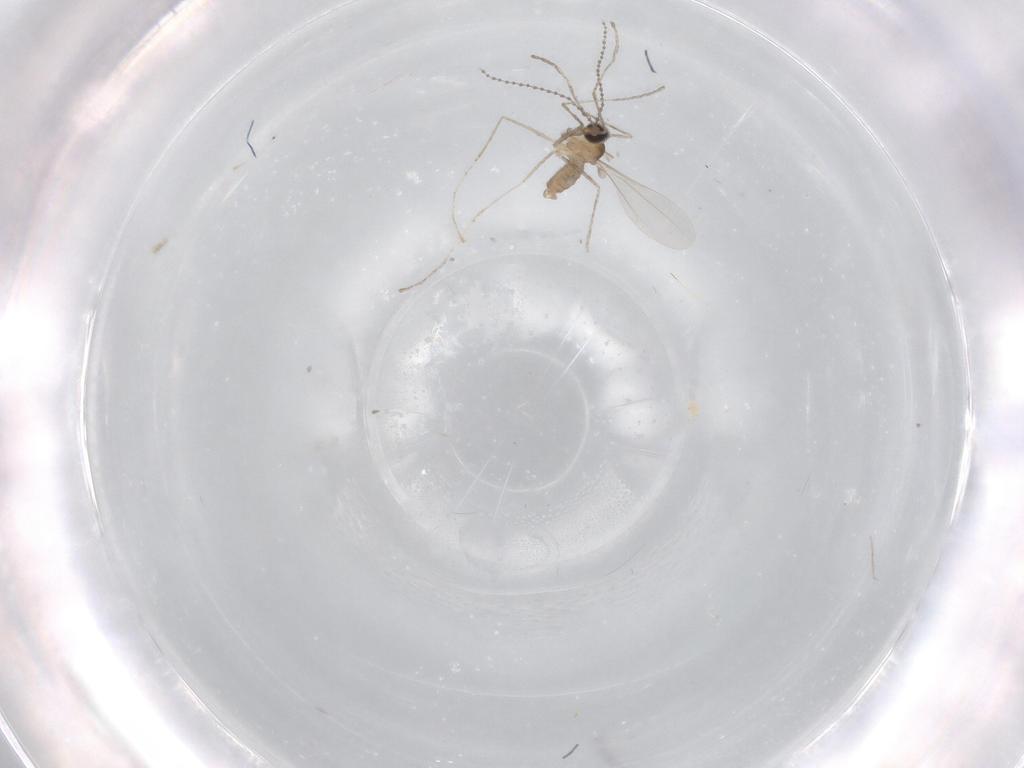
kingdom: Animalia
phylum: Arthropoda
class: Insecta
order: Diptera
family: Cecidomyiidae
